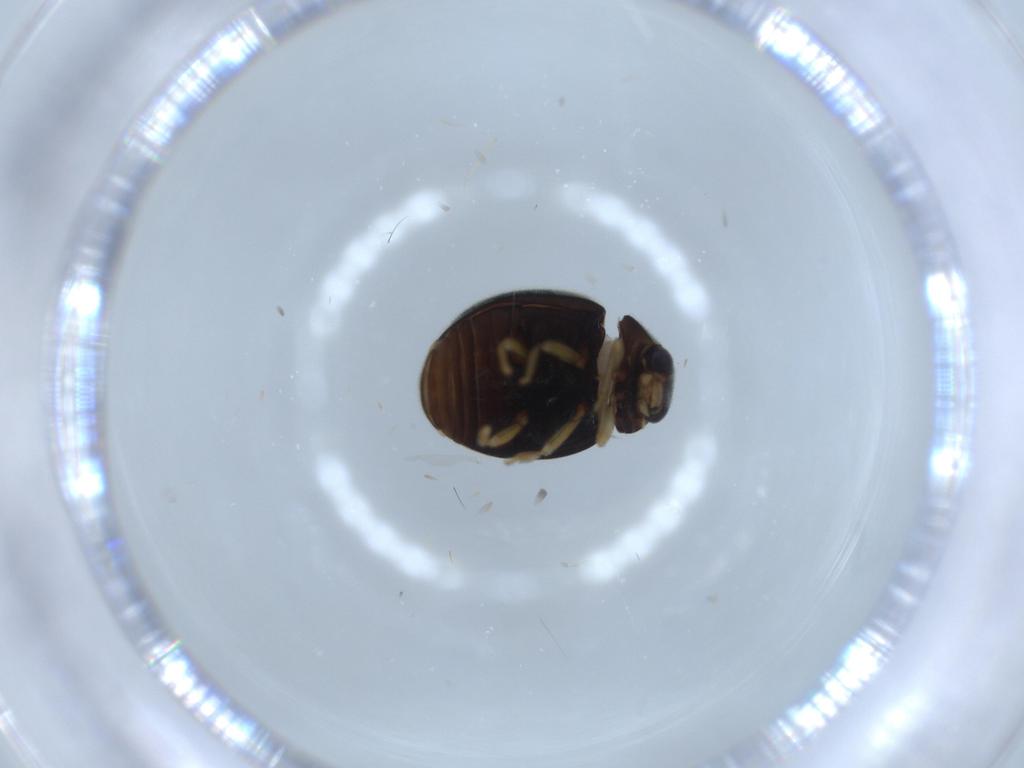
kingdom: Animalia
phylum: Arthropoda
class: Insecta
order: Coleoptera
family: Coccinellidae
